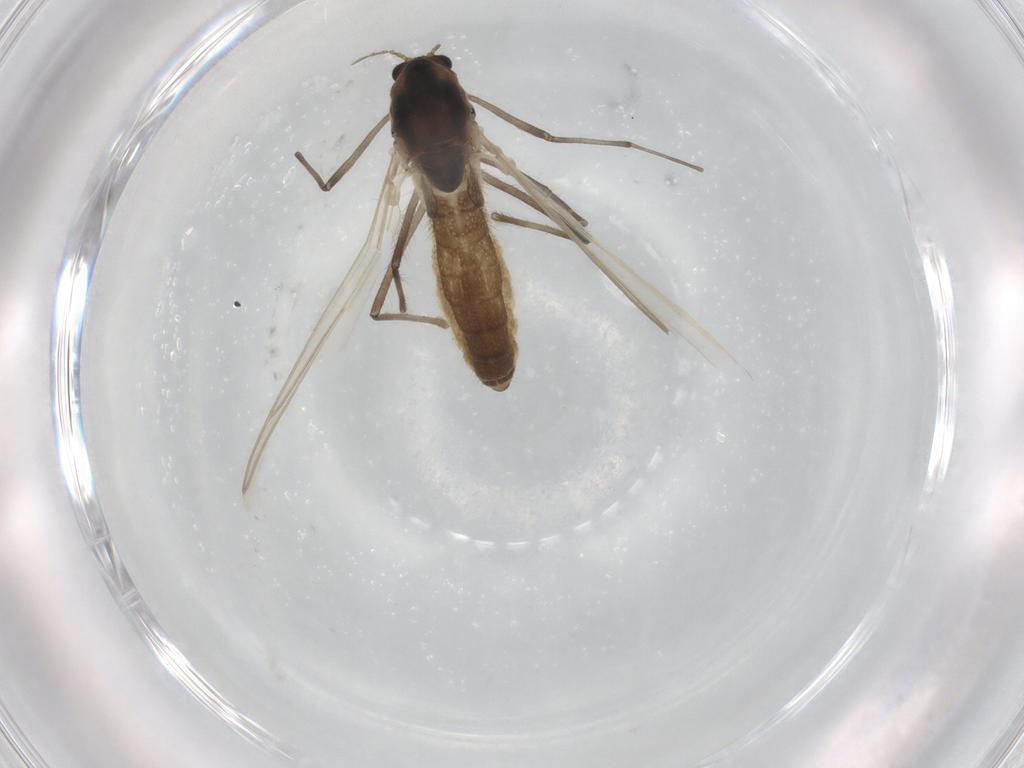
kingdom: Animalia
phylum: Arthropoda
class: Insecta
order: Diptera
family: Chironomidae
